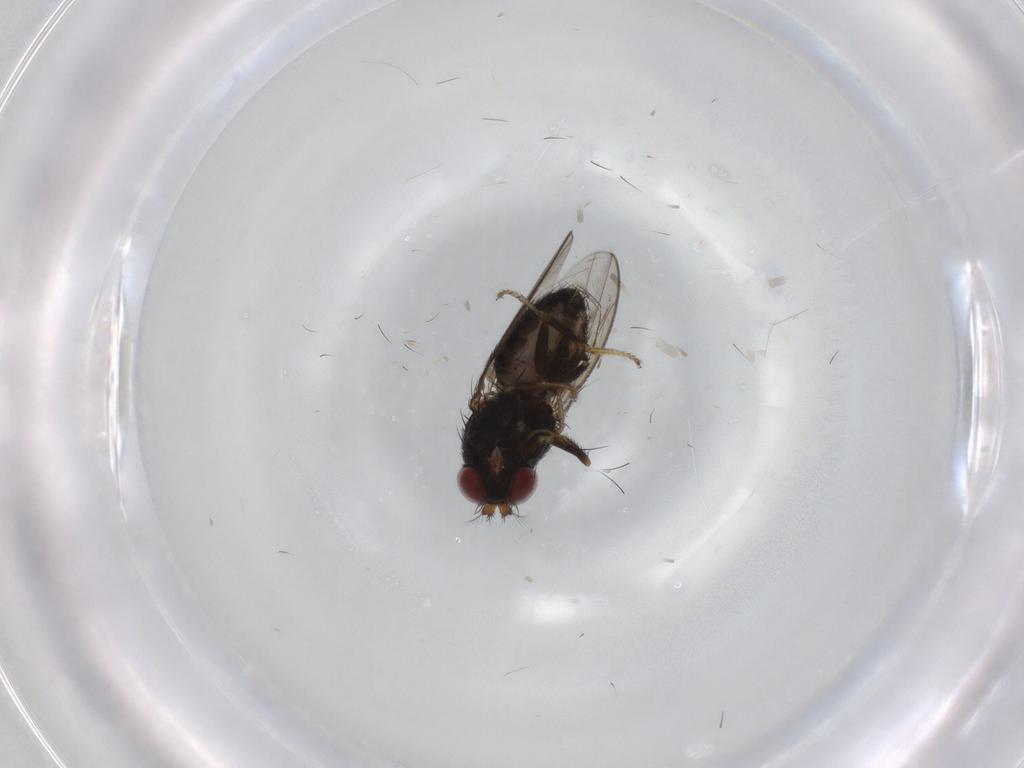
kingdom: Animalia
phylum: Arthropoda
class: Insecta
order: Diptera
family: Ephydridae
